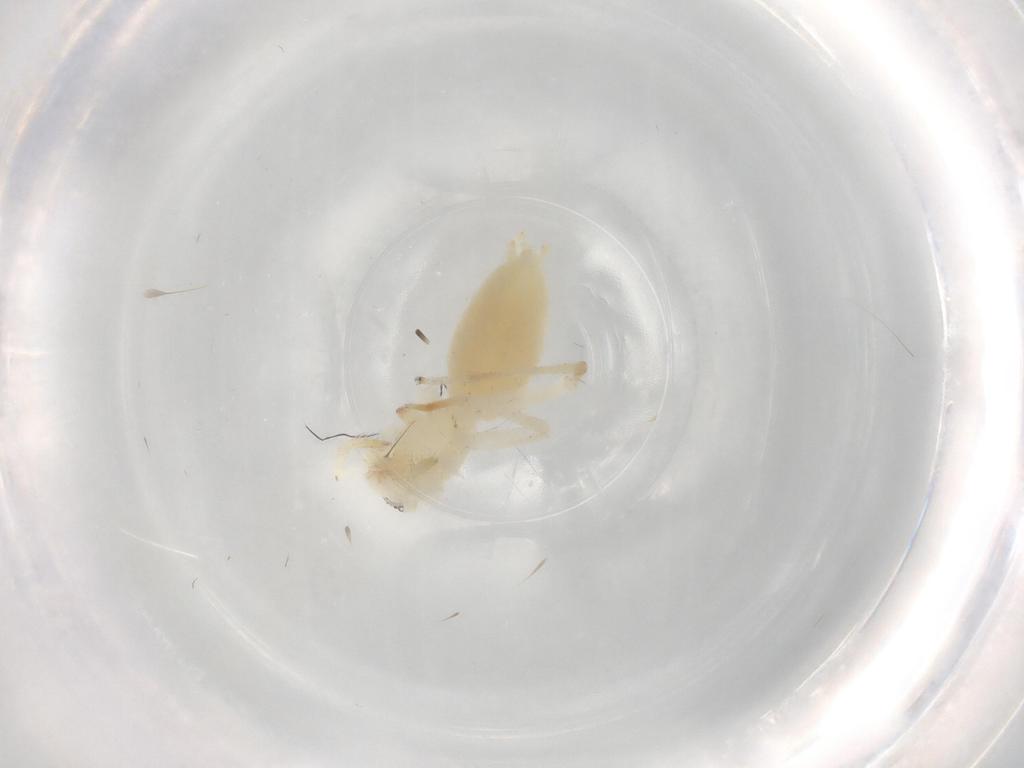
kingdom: Animalia
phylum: Arthropoda
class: Arachnida
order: Araneae
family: Anyphaenidae
